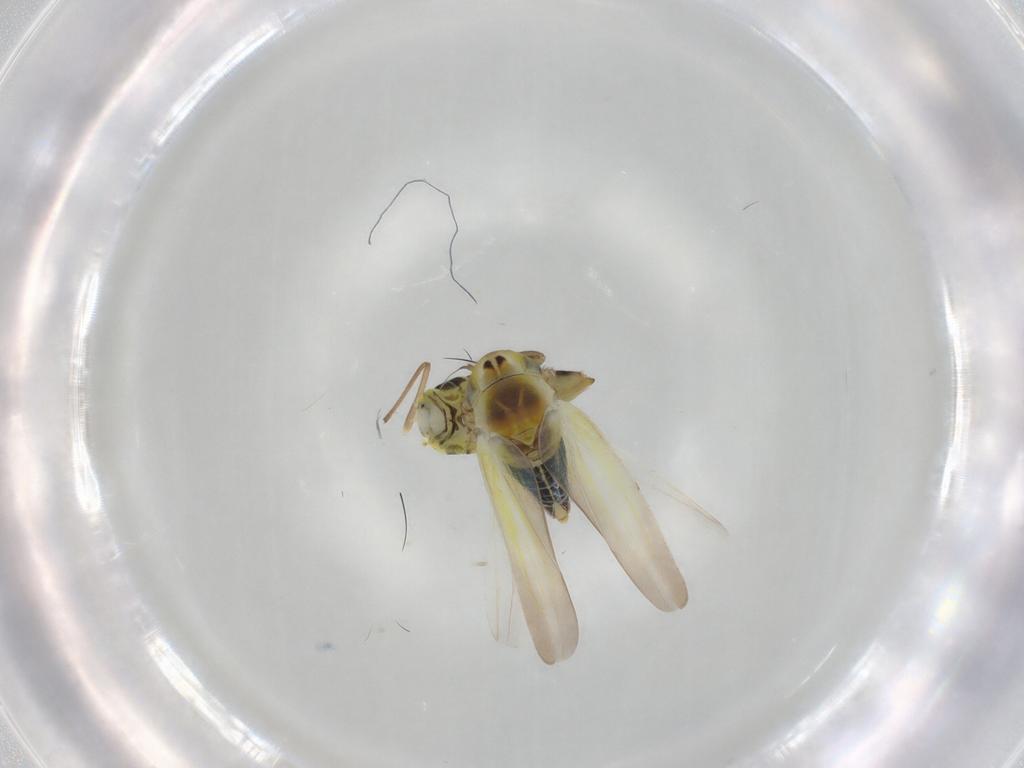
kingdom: Animalia
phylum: Arthropoda
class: Insecta
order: Hemiptera
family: Cicadellidae
